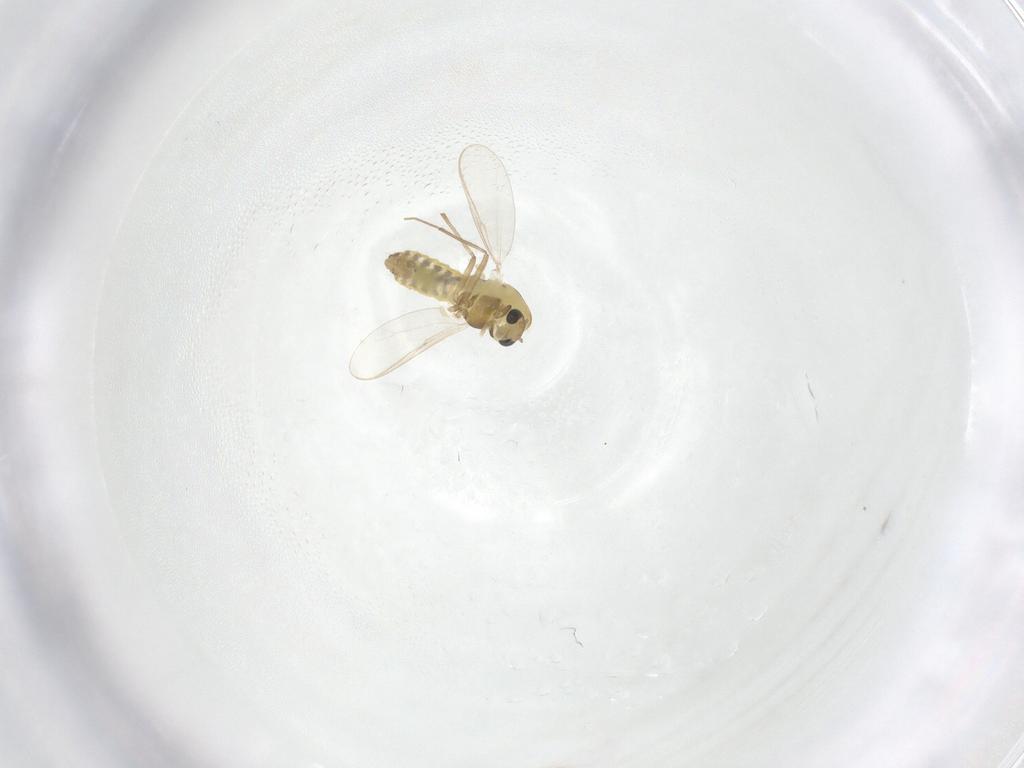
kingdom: Animalia
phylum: Arthropoda
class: Insecta
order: Diptera
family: Chironomidae
